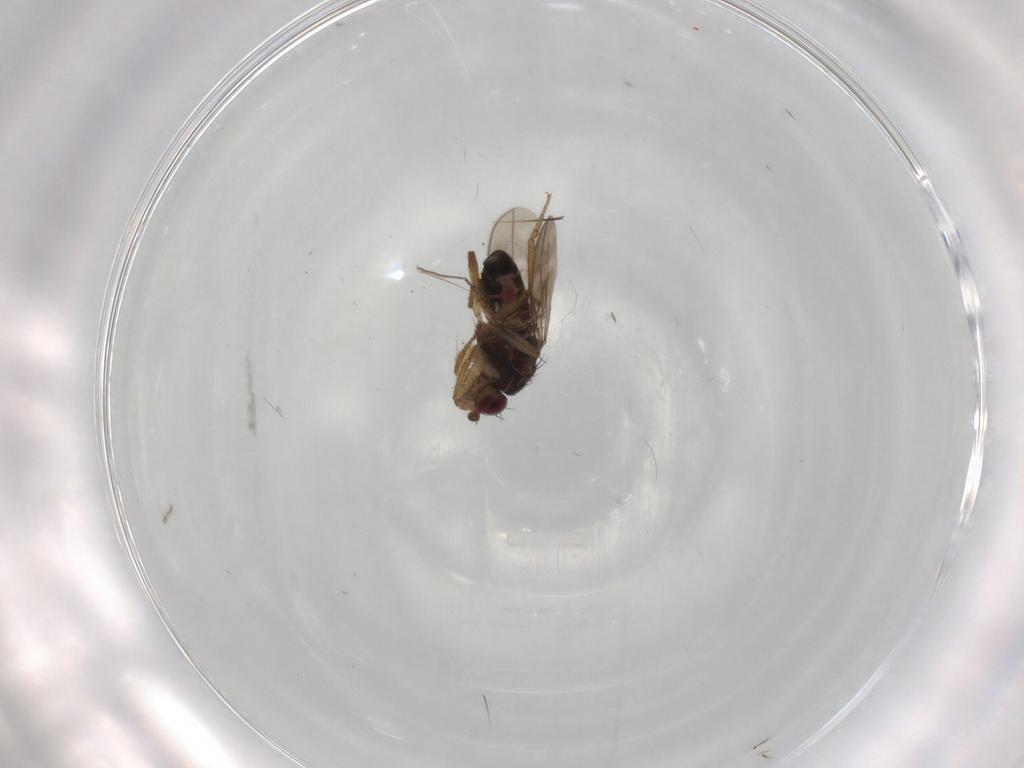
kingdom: Animalia
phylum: Arthropoda
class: Insecta
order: Diptera
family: Sphaeroceridae
